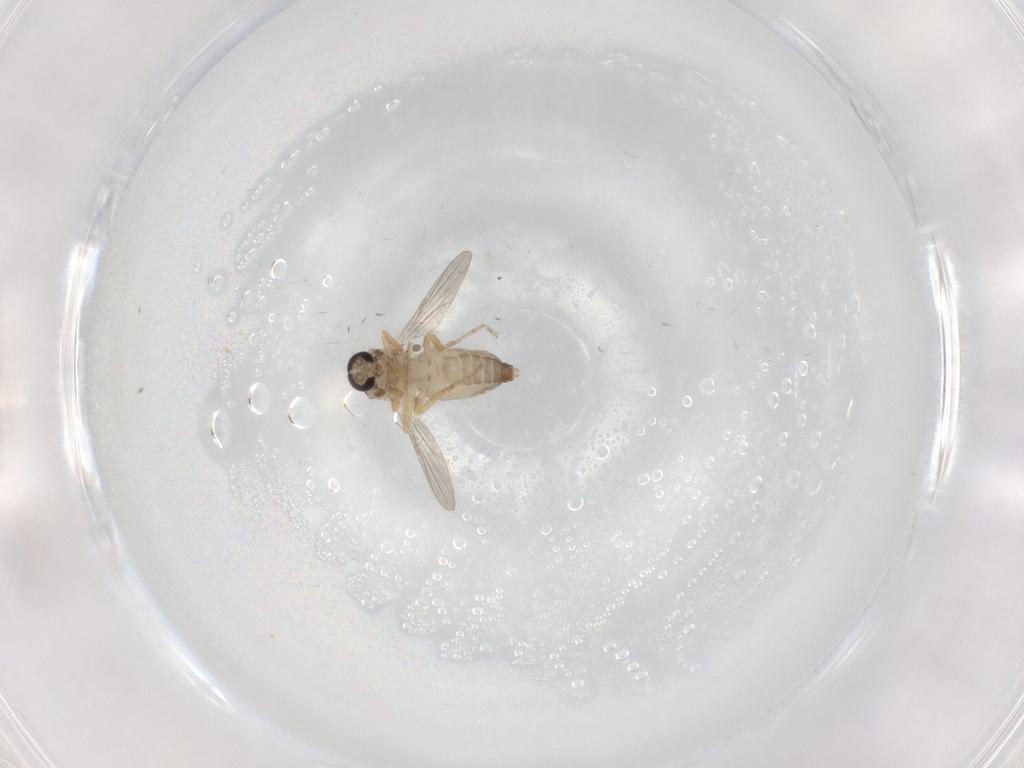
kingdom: Animalia
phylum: Arthropoda
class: Insecta
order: Diptera
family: Ceratopogonidae
